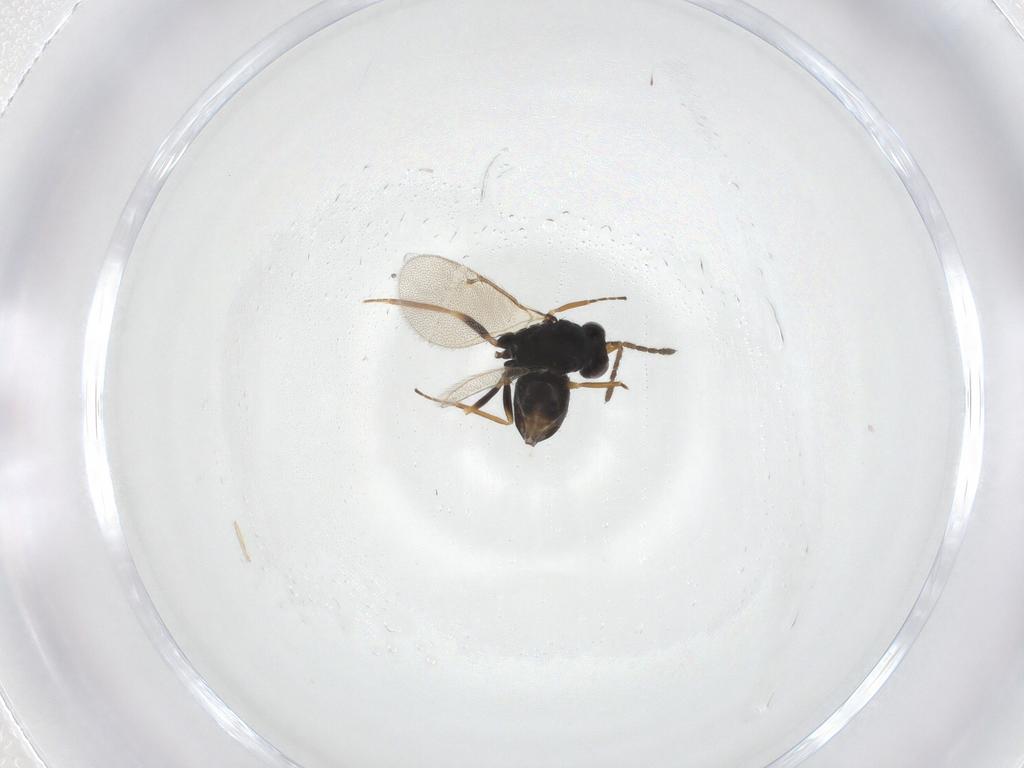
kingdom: Animalia
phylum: Arthropoda
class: Insecta
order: Hymenoptera
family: Eulophidae
